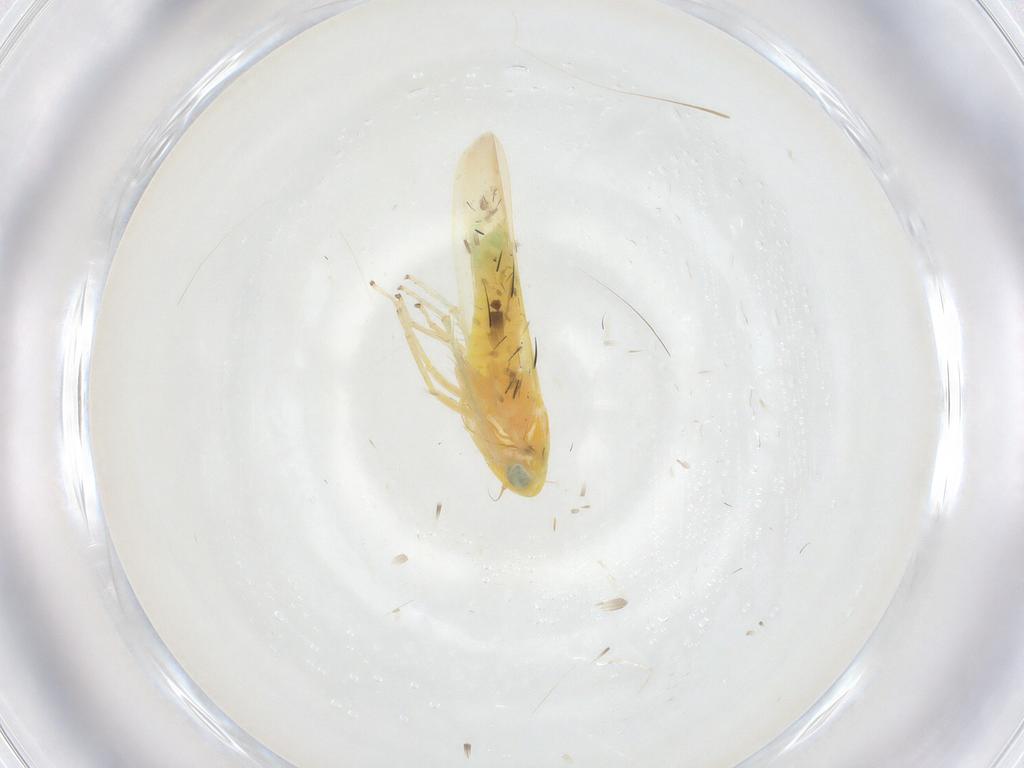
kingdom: Animalia
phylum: Arthropoda
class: Insecta
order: Hemiptera
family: Cicadellidae
